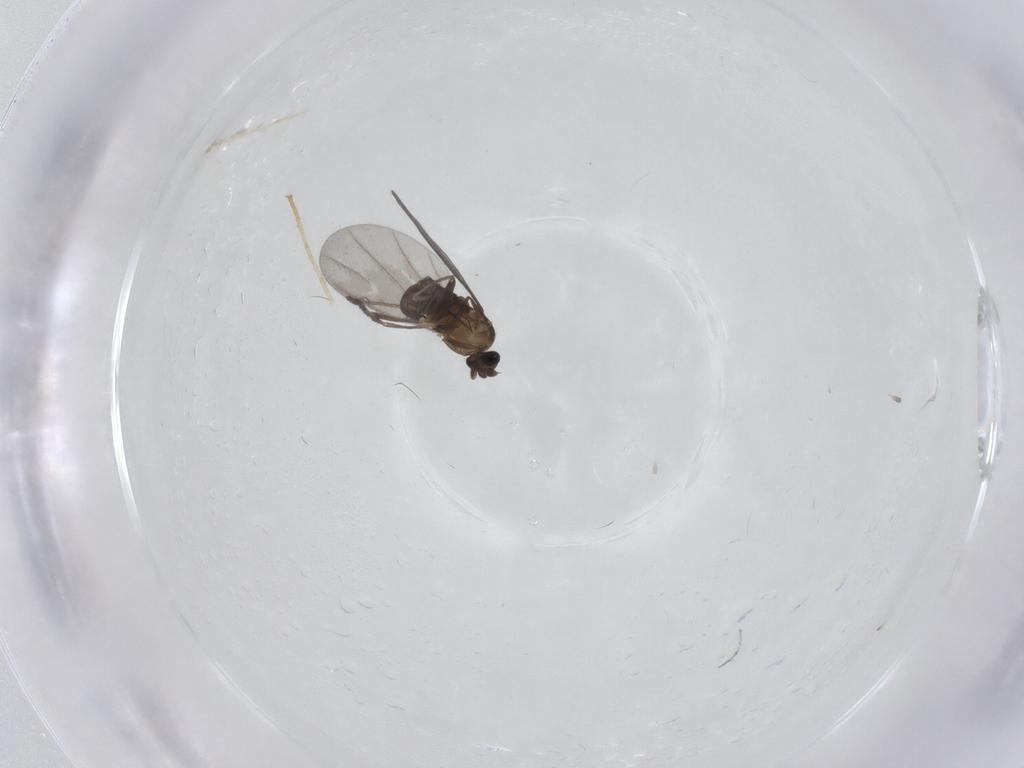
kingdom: Animalia
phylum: Arthropoda
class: Insecta
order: Diptera
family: Phoridae
